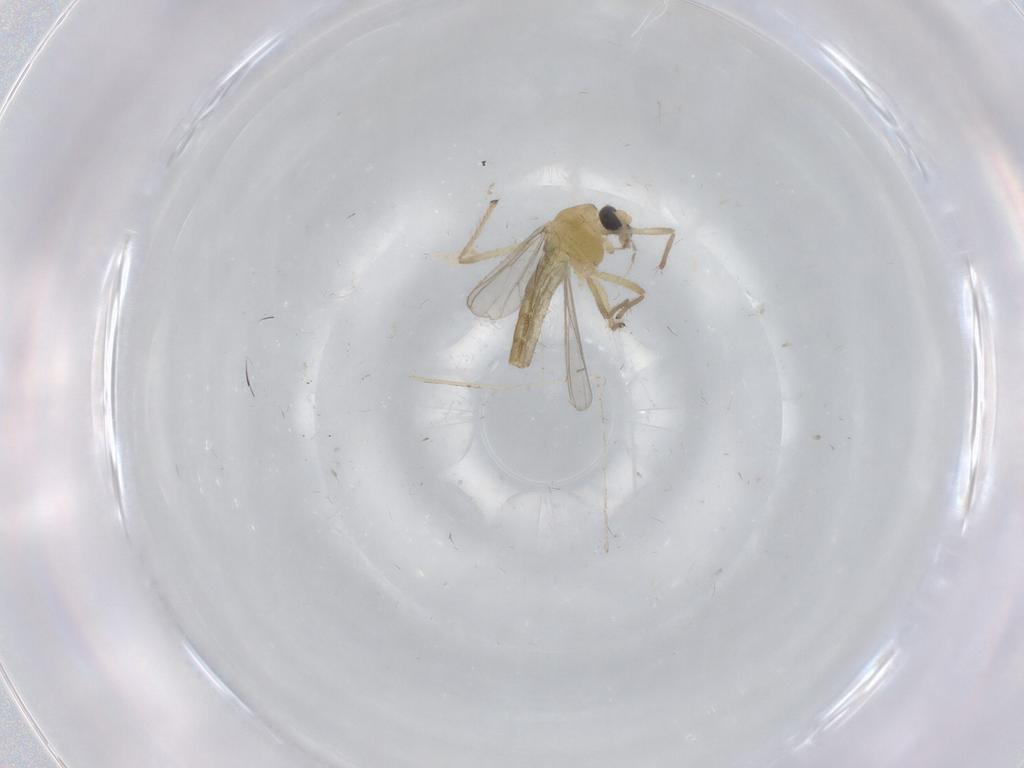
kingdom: Animalia
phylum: Arthropoda
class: Insecta
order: Diptera
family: Chironomidae
